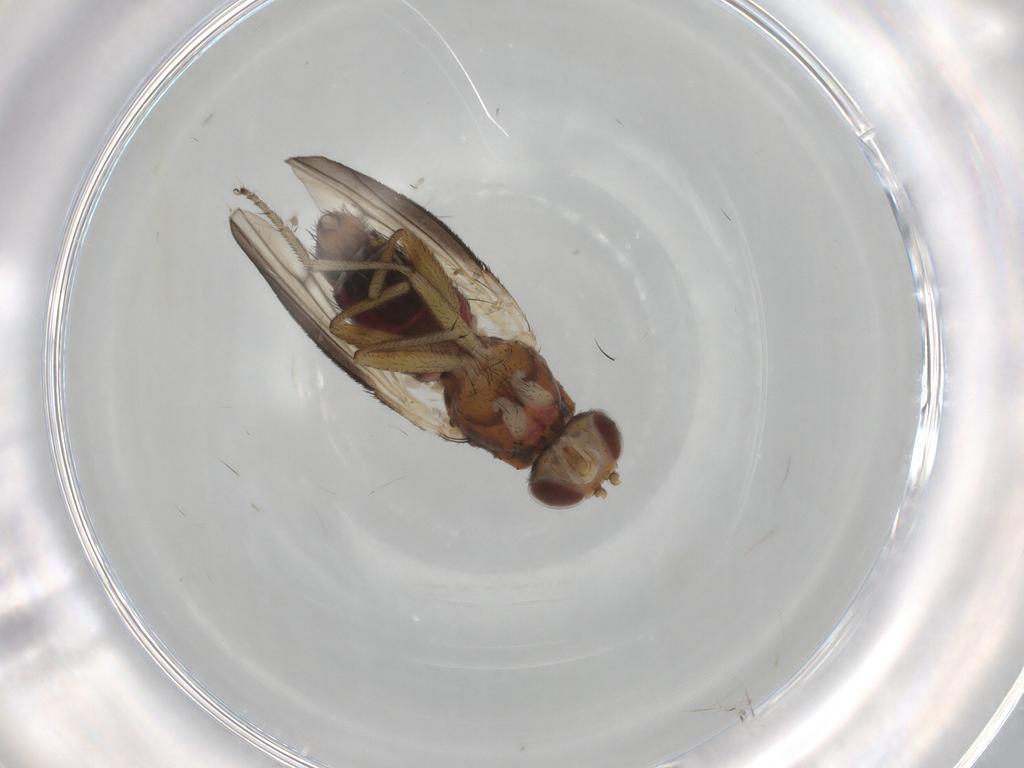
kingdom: Animalia
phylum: Arthropoda
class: Insecta
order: Diptera
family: Heleomyzidae
